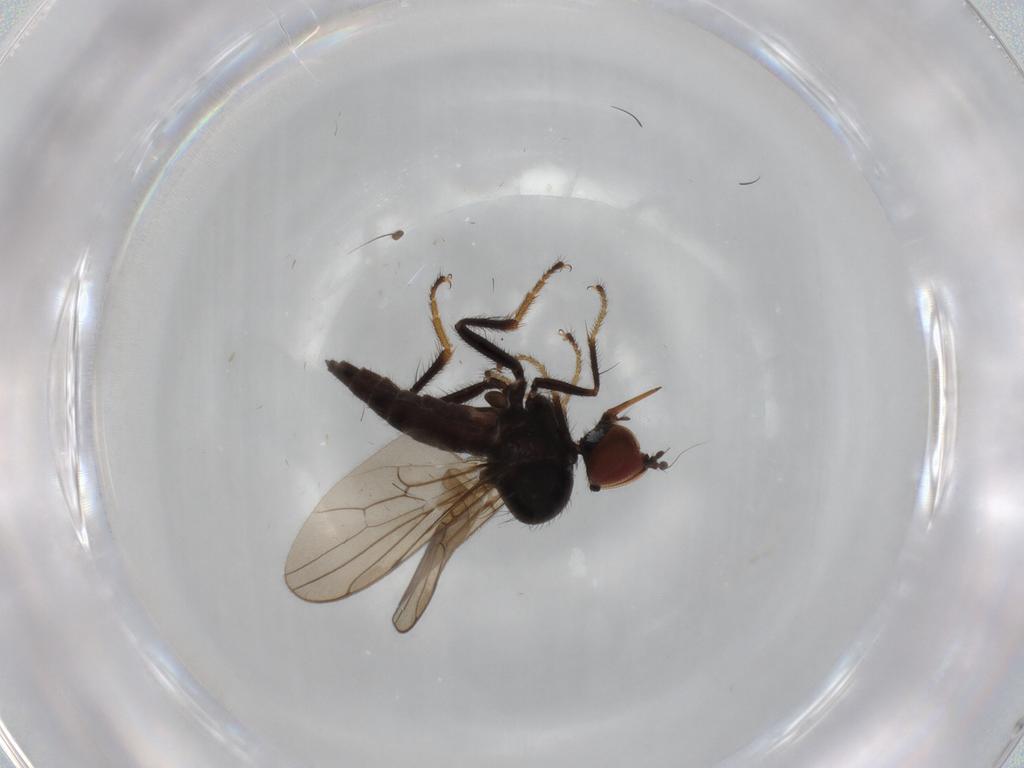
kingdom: Animalia
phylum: Arthropoda
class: Insecta
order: Diptera
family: Hybotidae
